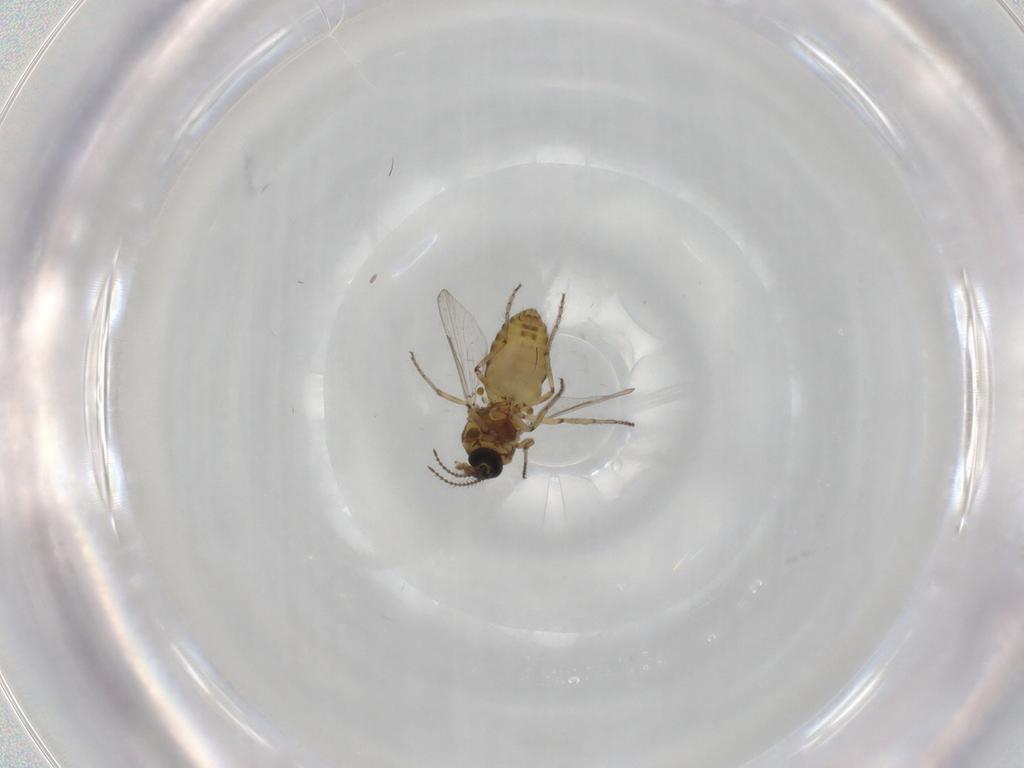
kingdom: Animalia
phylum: Arthropoda
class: Insecta
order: Diptera
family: Ceratopogonidae
